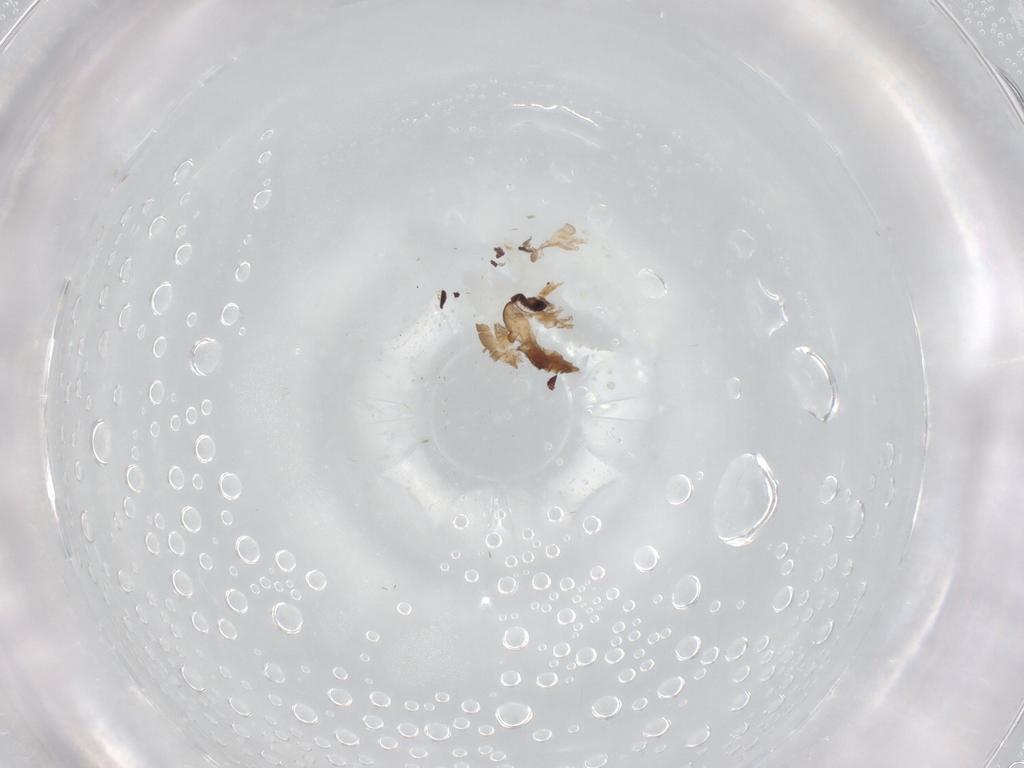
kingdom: Animalia
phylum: Arthropoda
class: Insecta
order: Diptera
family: Psychodidae
